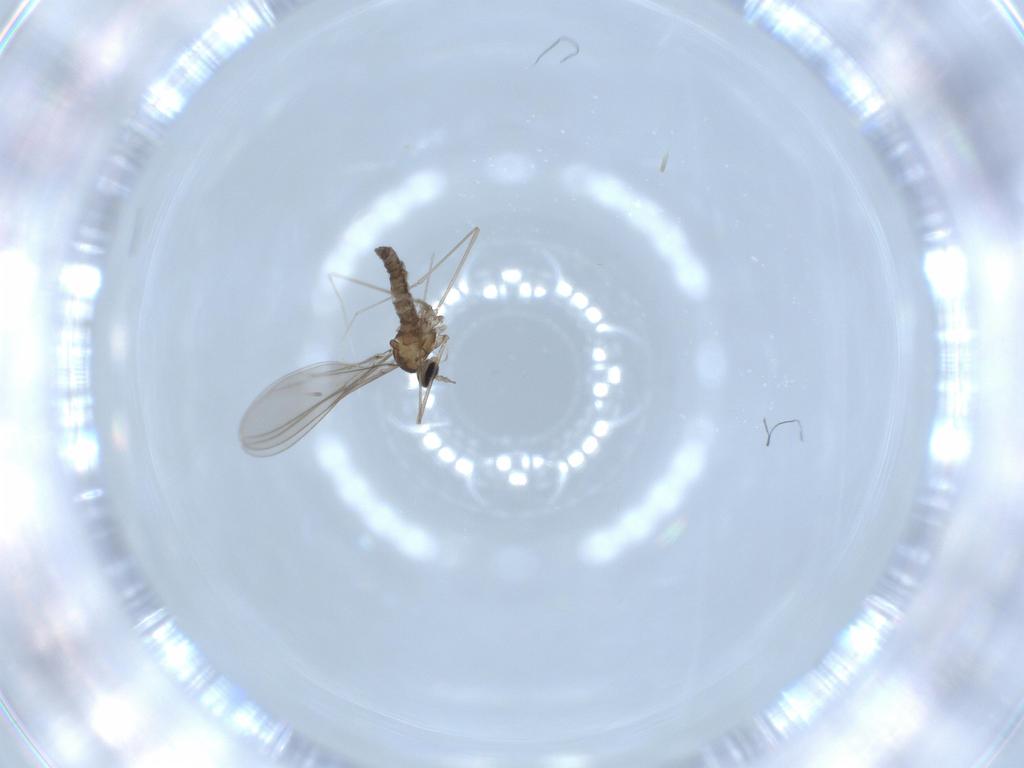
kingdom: Animalia
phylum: Arthropoda
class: Insecta
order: Diptera
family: Cecidomyiidae
